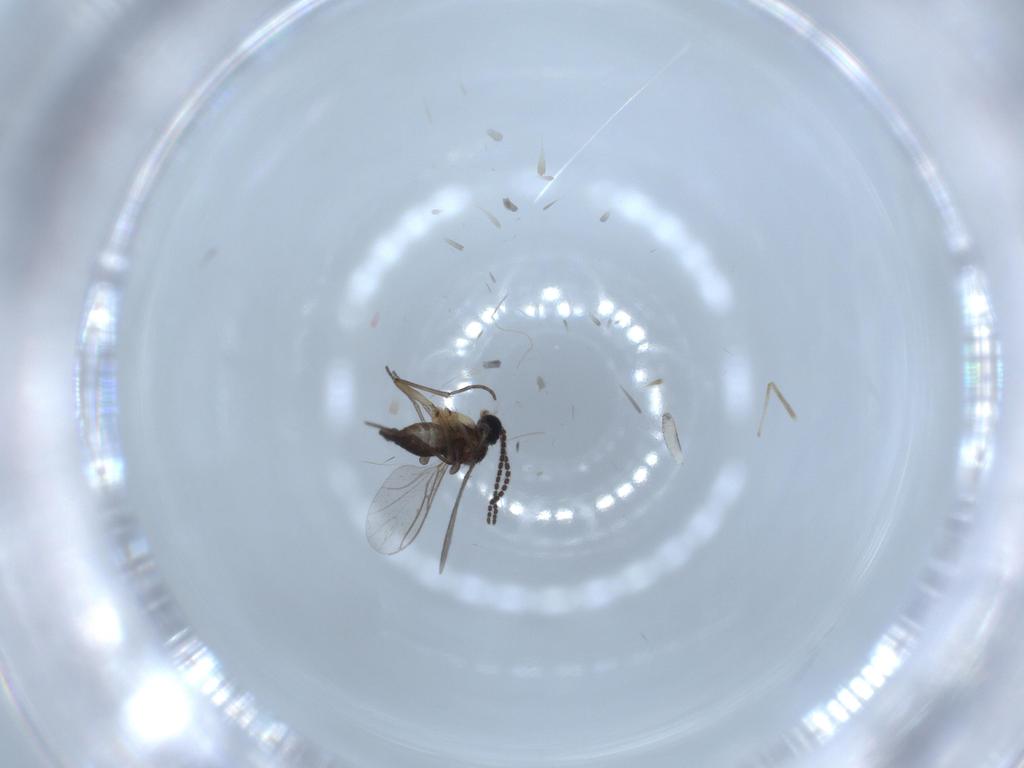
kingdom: Animalia
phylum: Arthropoda
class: Insecta
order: Diptera
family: Sciaridae
